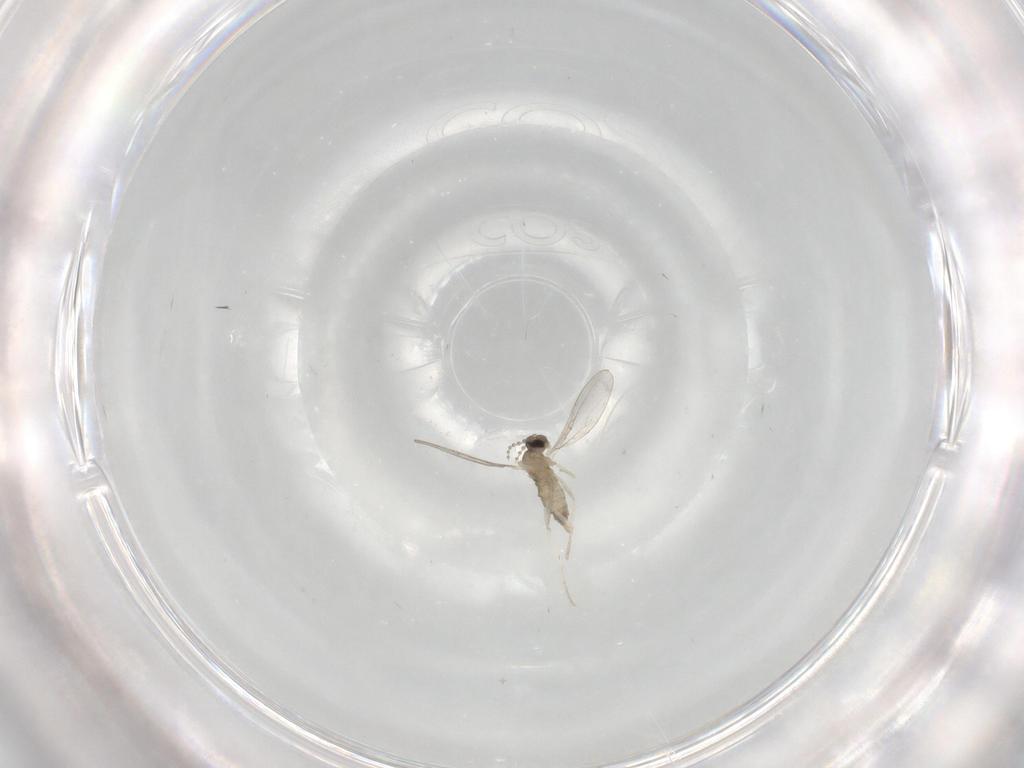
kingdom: Animalia
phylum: Arthropoda
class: Insecta
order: Diptera
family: Cecidomyiidae
